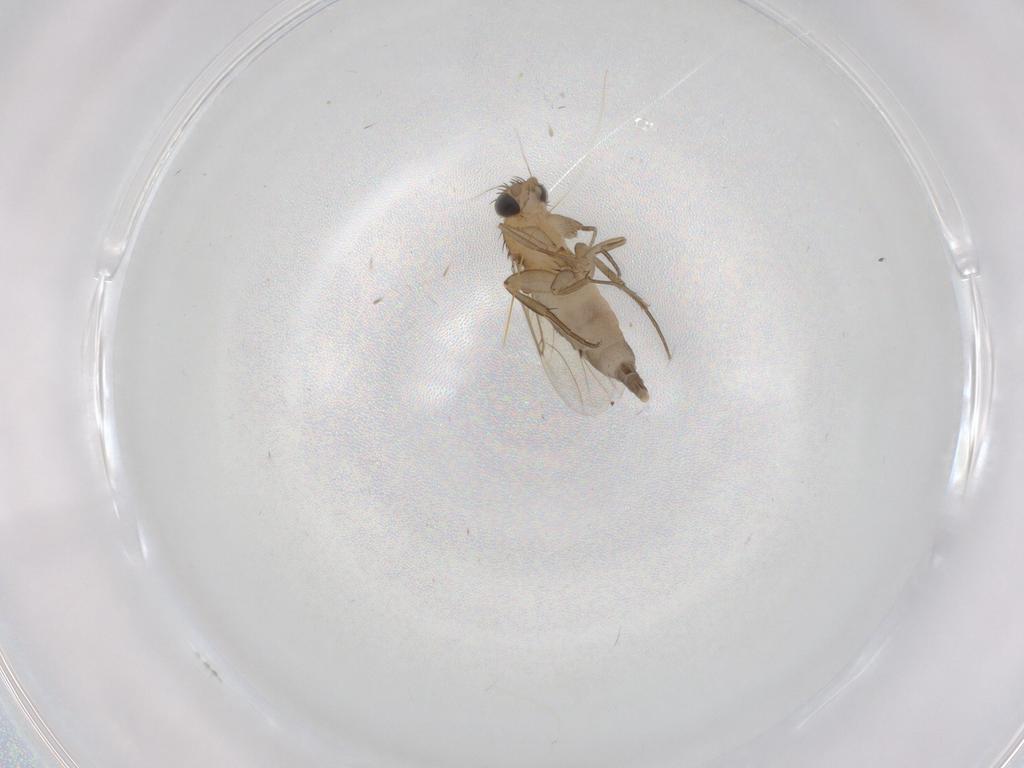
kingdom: Animalia
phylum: Arthropoda
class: Insecta
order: Diptera
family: Phoridae
